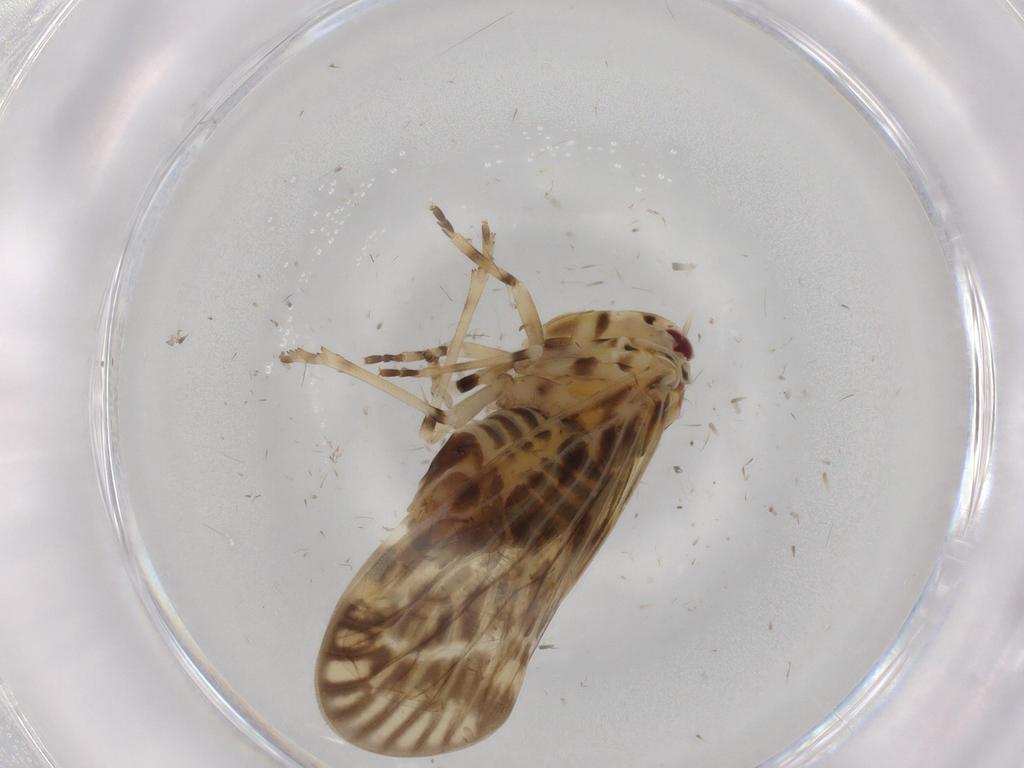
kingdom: Animalia
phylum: Arthropoda
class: Insecta
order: Hemiptera
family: Derbidae
